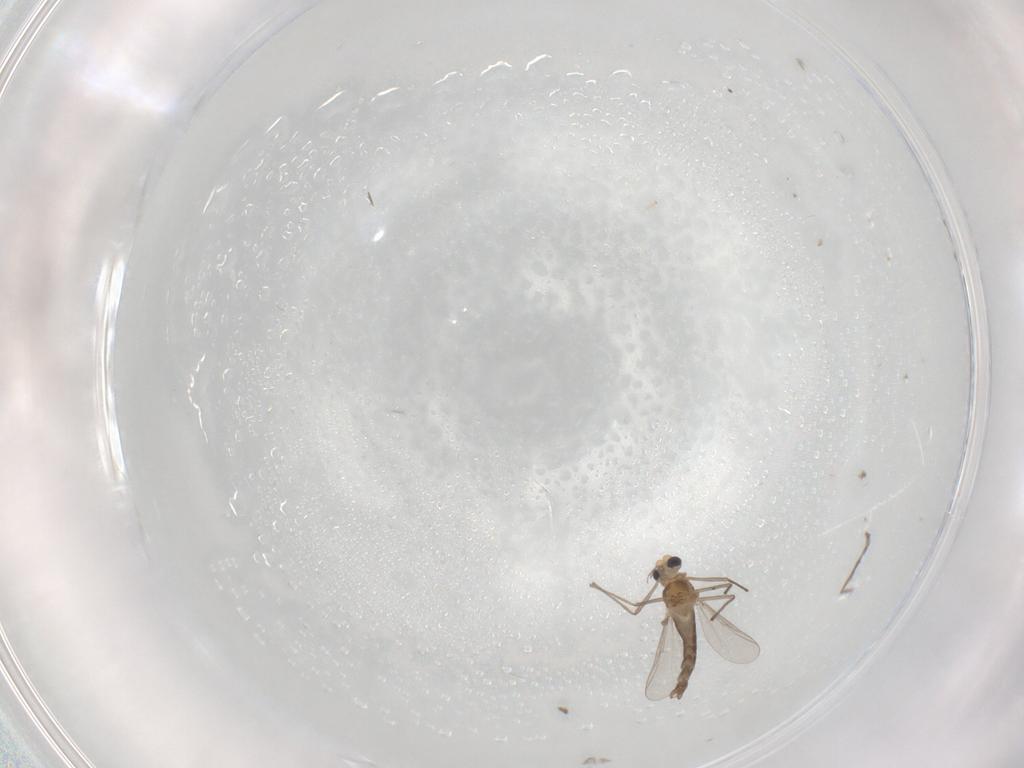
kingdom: Animalia
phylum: Arthropoda
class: Insecta
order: Diptera
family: Chironomidae
